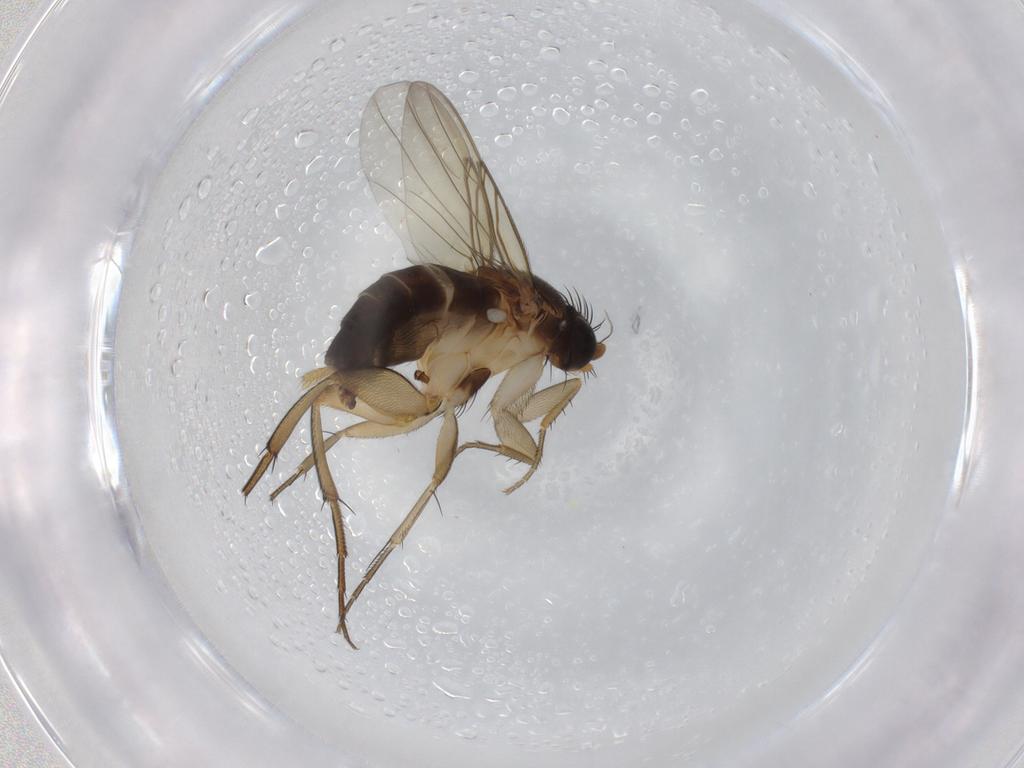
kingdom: Animalia
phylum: Arthropoda
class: Insecta
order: Diptera
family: Phoridae
